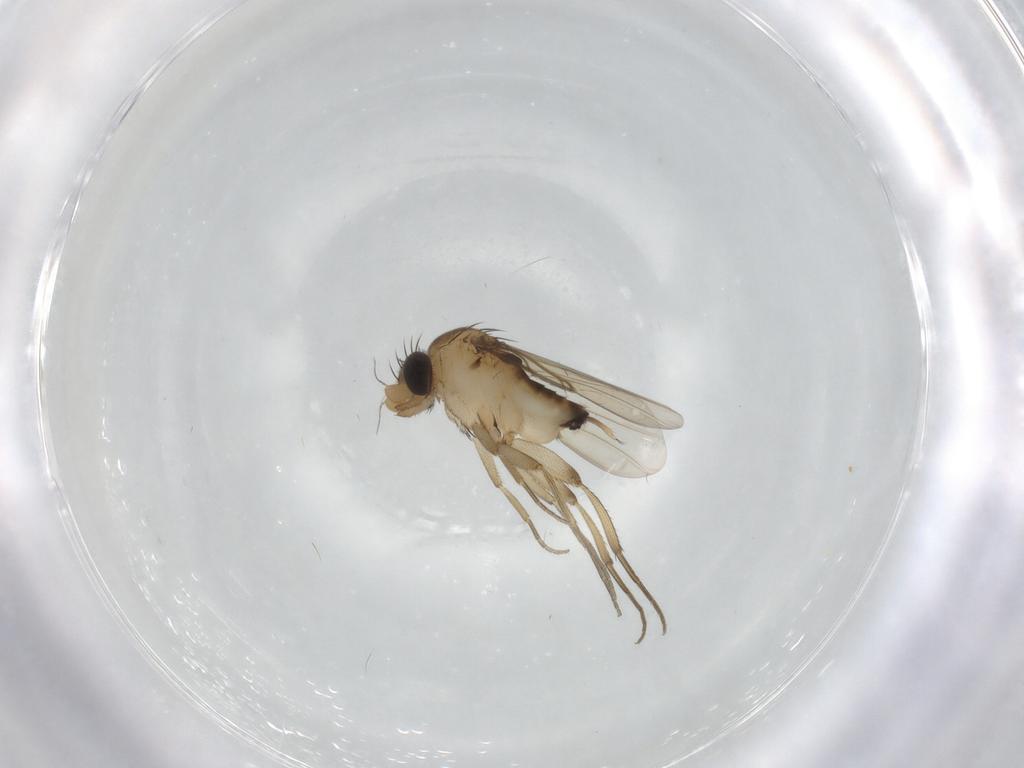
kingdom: Animalia
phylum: Arthropoda
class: Insecta
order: Diptera
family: Phoridae
